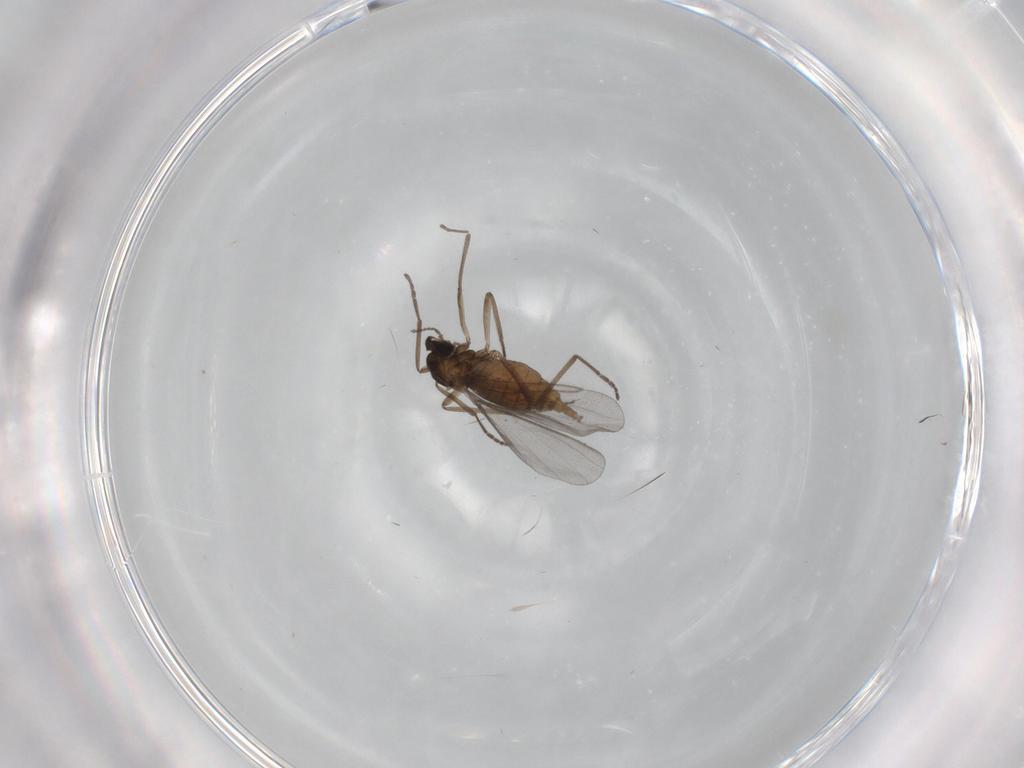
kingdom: Animalia
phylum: Arthropoda
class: Insecta
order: Diptera
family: Cecidomyiidae
